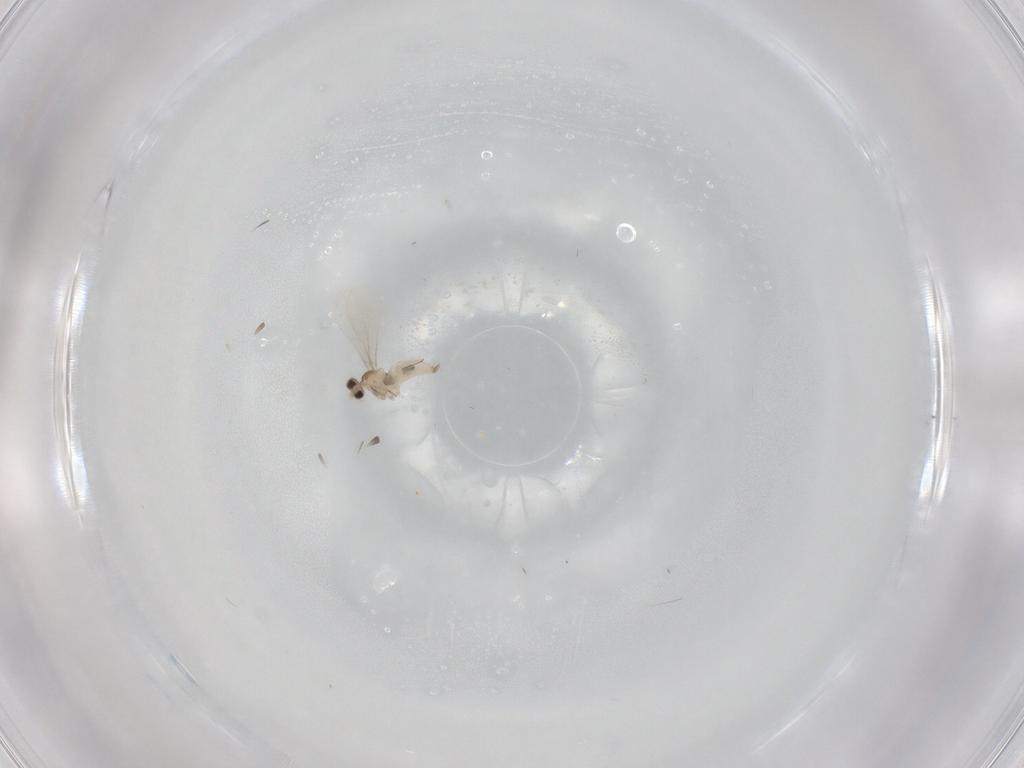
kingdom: Animalia
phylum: Arthropoda
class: Insecta
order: Diptera
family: Cecidomyiidae
